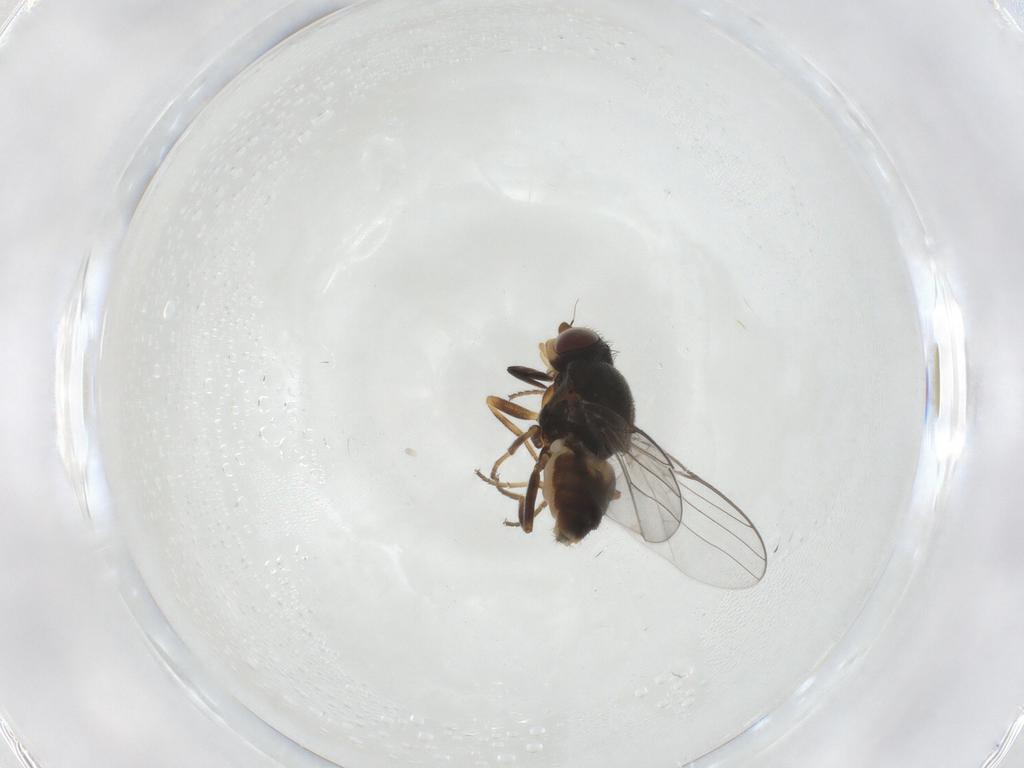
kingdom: Animalia
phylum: Arthropoda
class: Insecta
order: Diptera
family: Chloropidae
